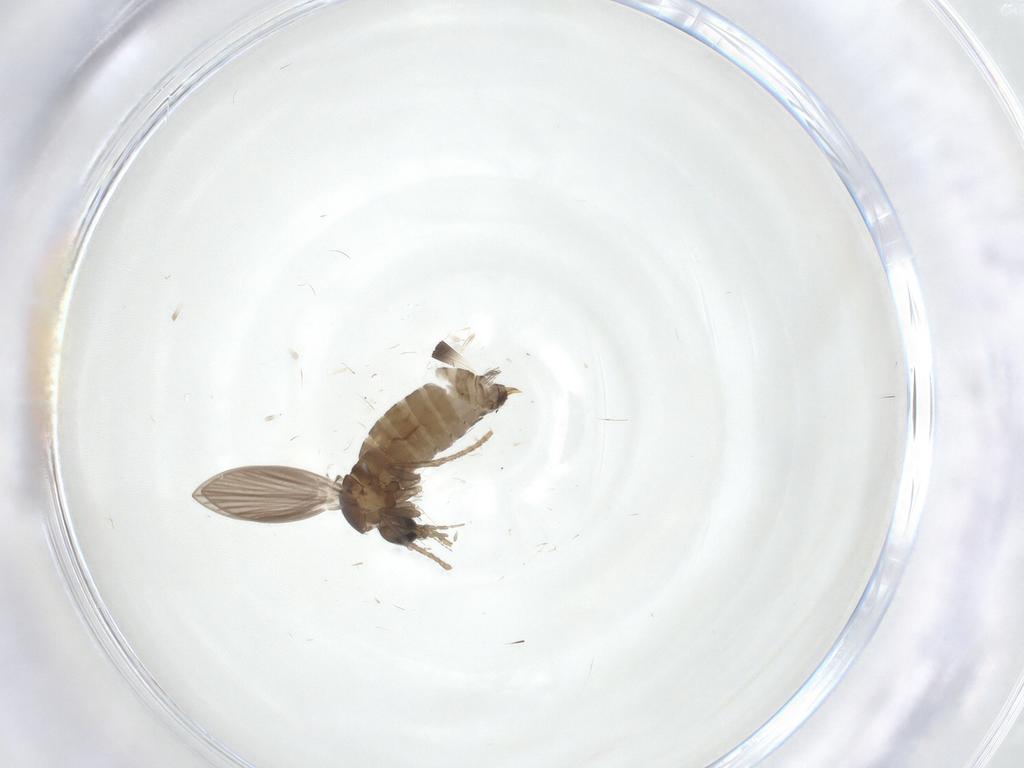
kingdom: Animalia
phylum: Arthropoda
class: Insecta
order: Diptera
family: Psychodidae
